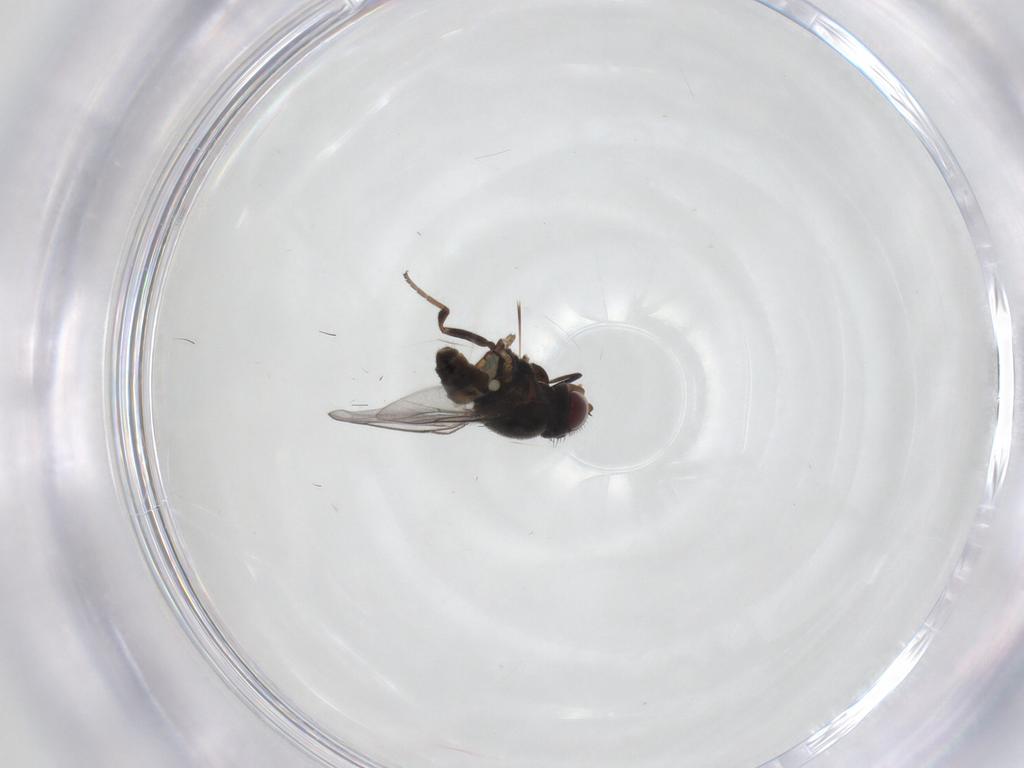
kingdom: Animalia
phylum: Arthropoda
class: Insecta
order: Diptera
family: Chloropidae
